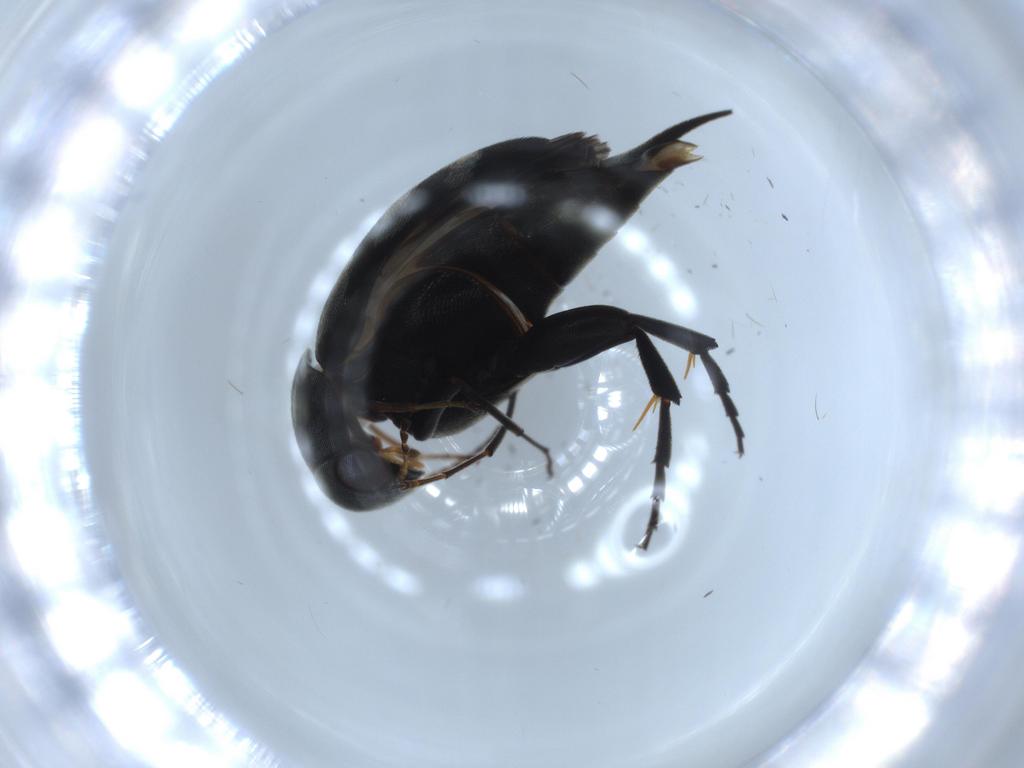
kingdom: Animalia
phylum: Arthropoda
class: Insecta
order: Coleoptera
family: Mordellidae
